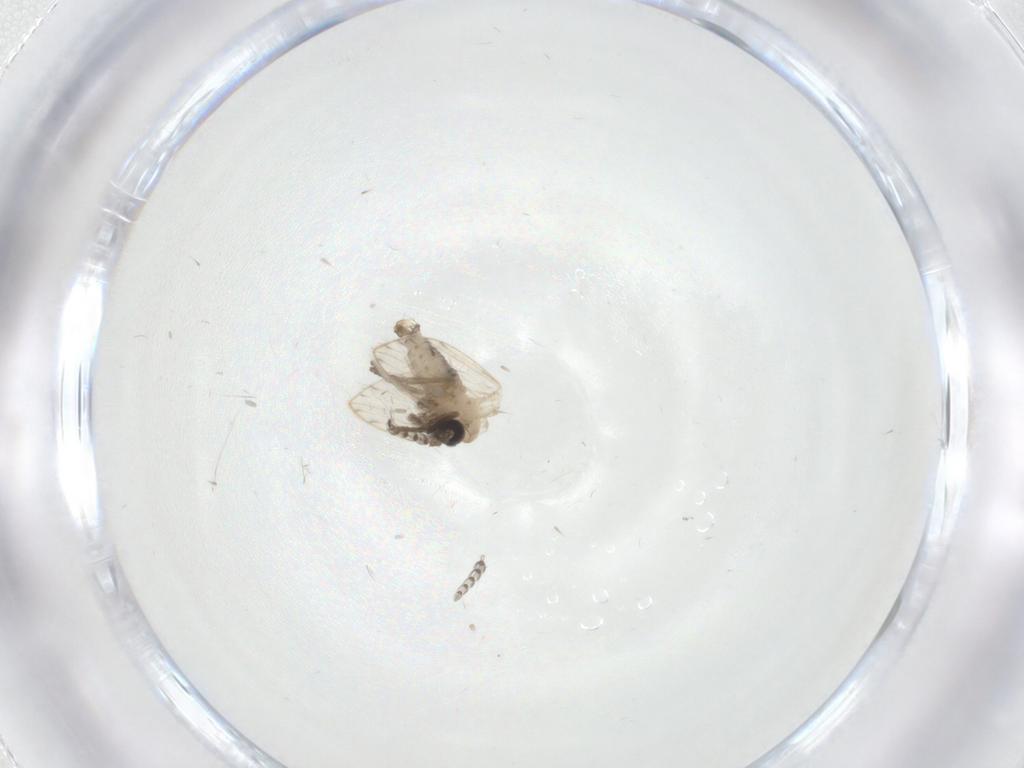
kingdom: Animalia
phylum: Arthropoda
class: Insecta
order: Diptera
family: Psychodidae
